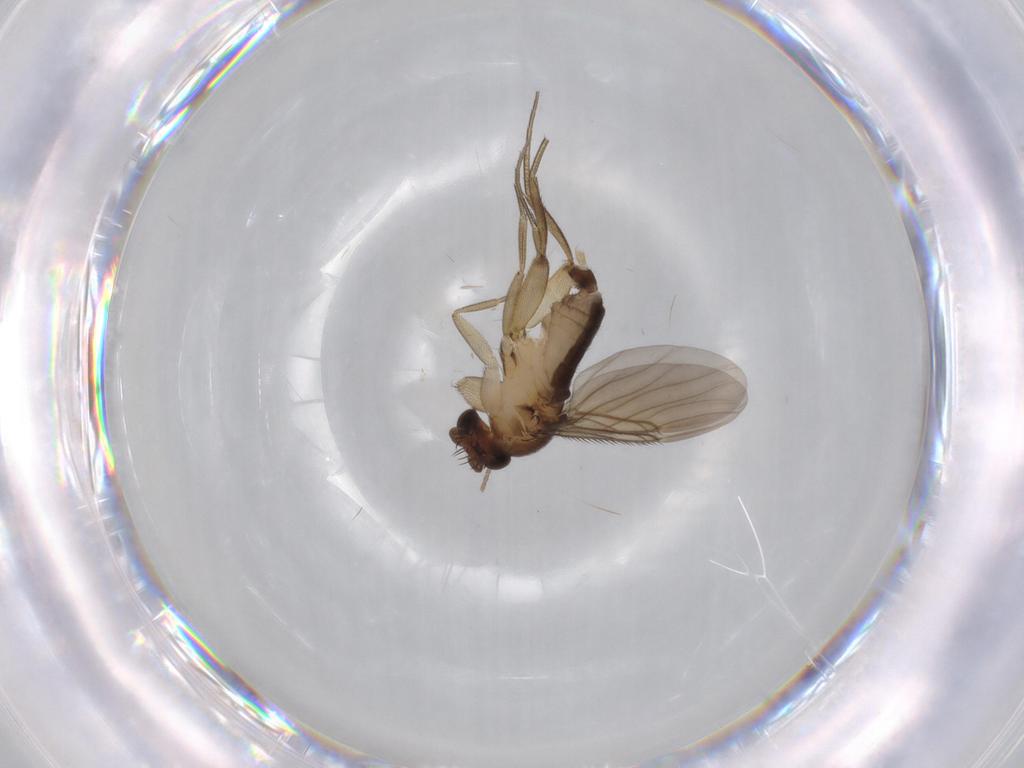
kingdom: Animalia
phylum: Arthropoda
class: Insecta
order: Diptera
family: Phoridae
